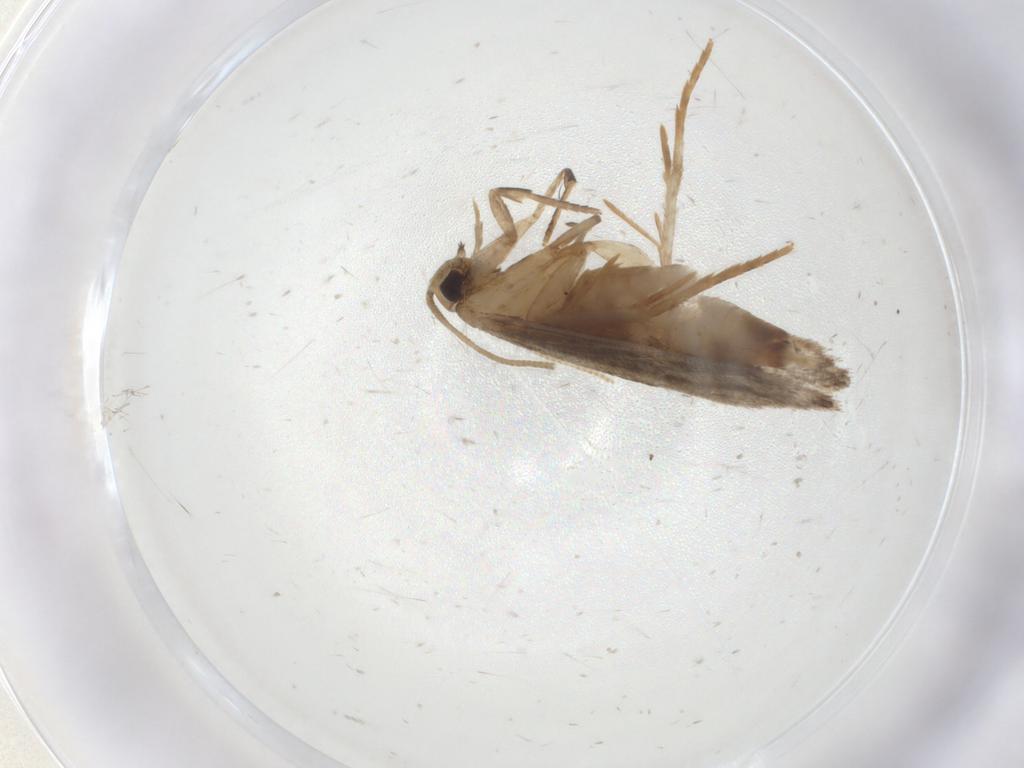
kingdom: Animalia
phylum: Arthropoda
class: Insecta
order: Lepidoptera
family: Tineidae
